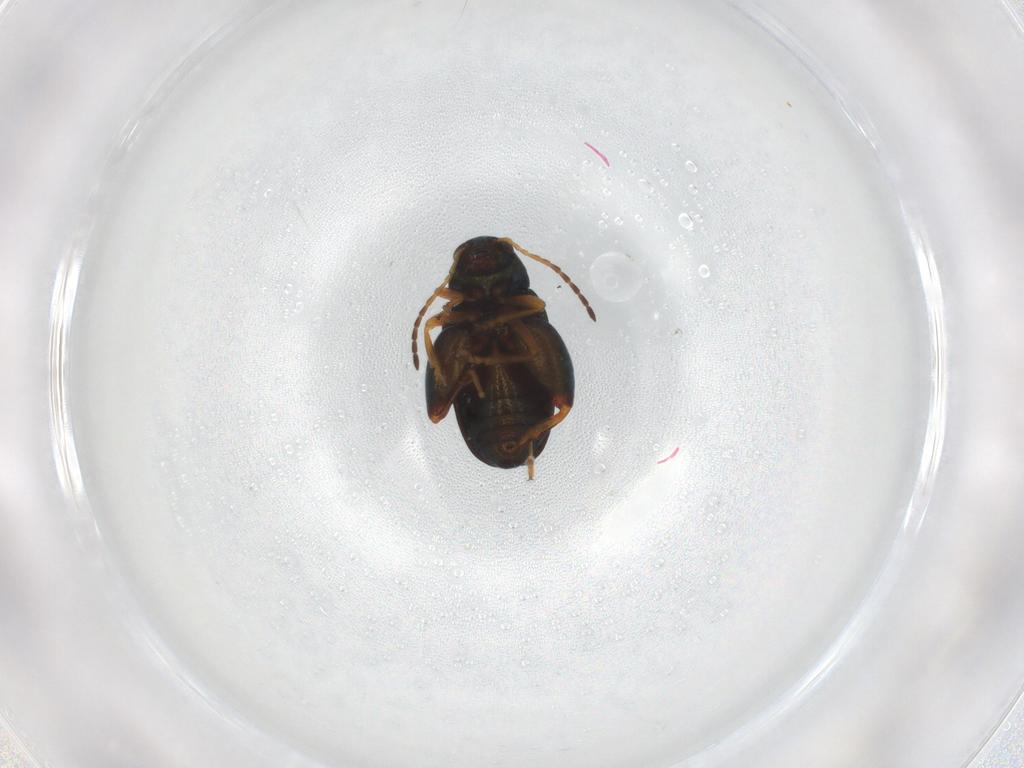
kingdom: Animalia
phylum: Arthropoda
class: Insecta
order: Coleoptera
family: Chrysomelidae
